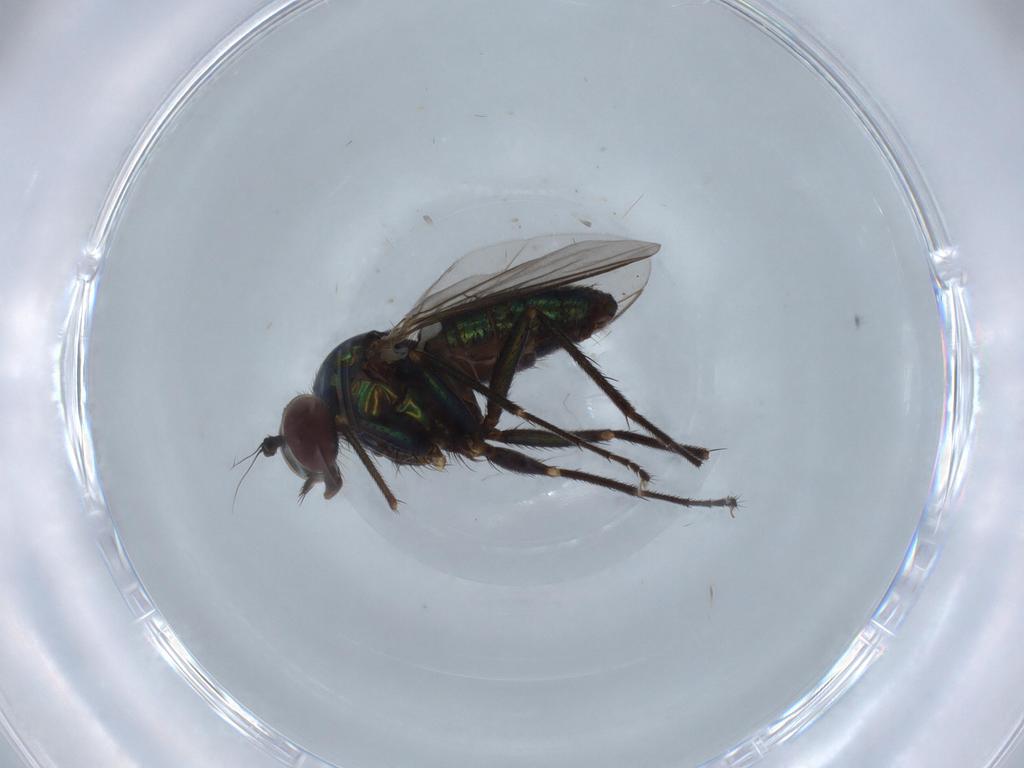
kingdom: Animalia
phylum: Arthropoda
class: Insecta
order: Diptera
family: Dolichopodidae
